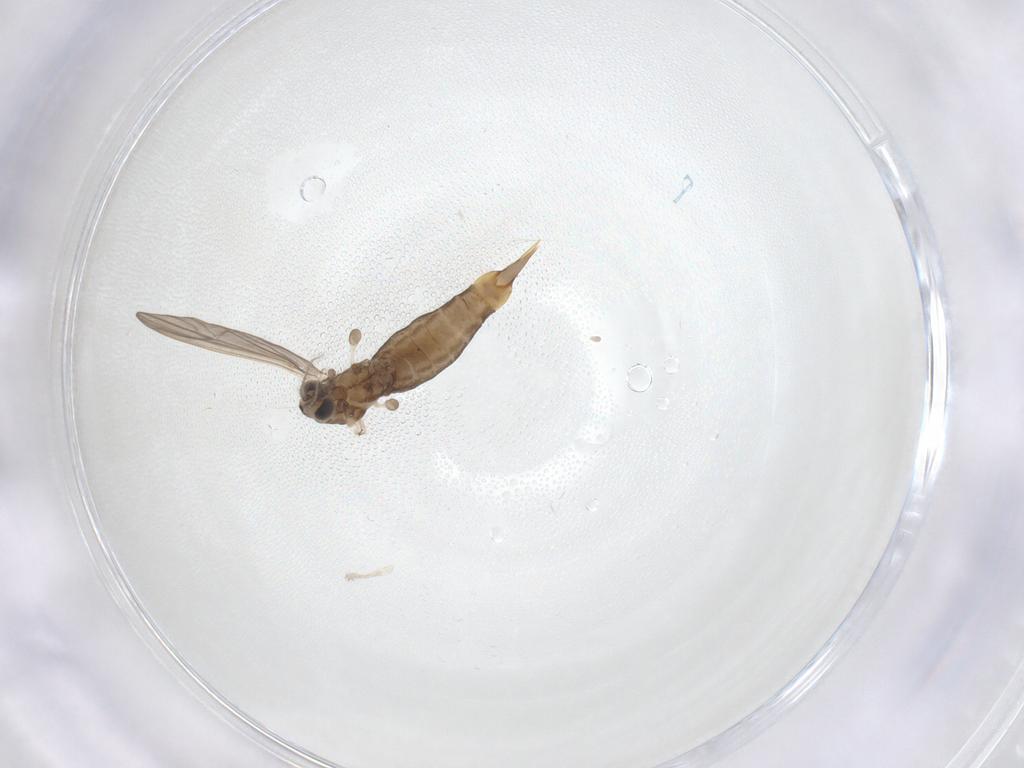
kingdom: Animalia
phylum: Arthropoda
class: Insecta
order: Diptera
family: Limoniidae
